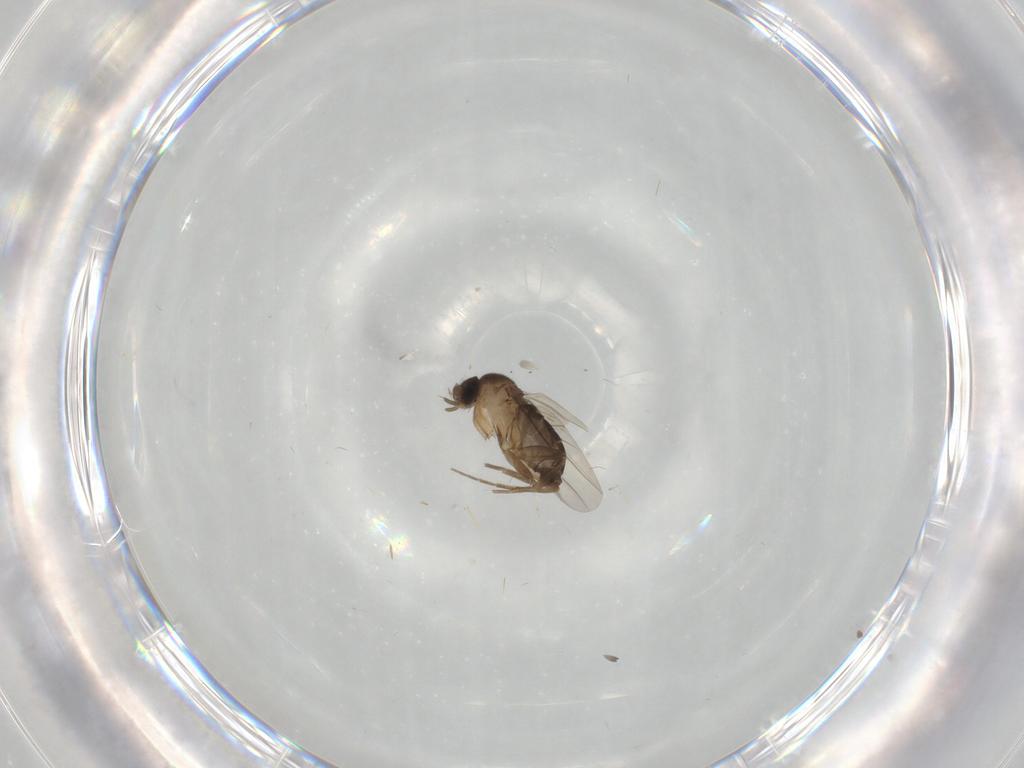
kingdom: Animalia
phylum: Arthropoda
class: Insecta
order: Diptera
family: Phoridae
